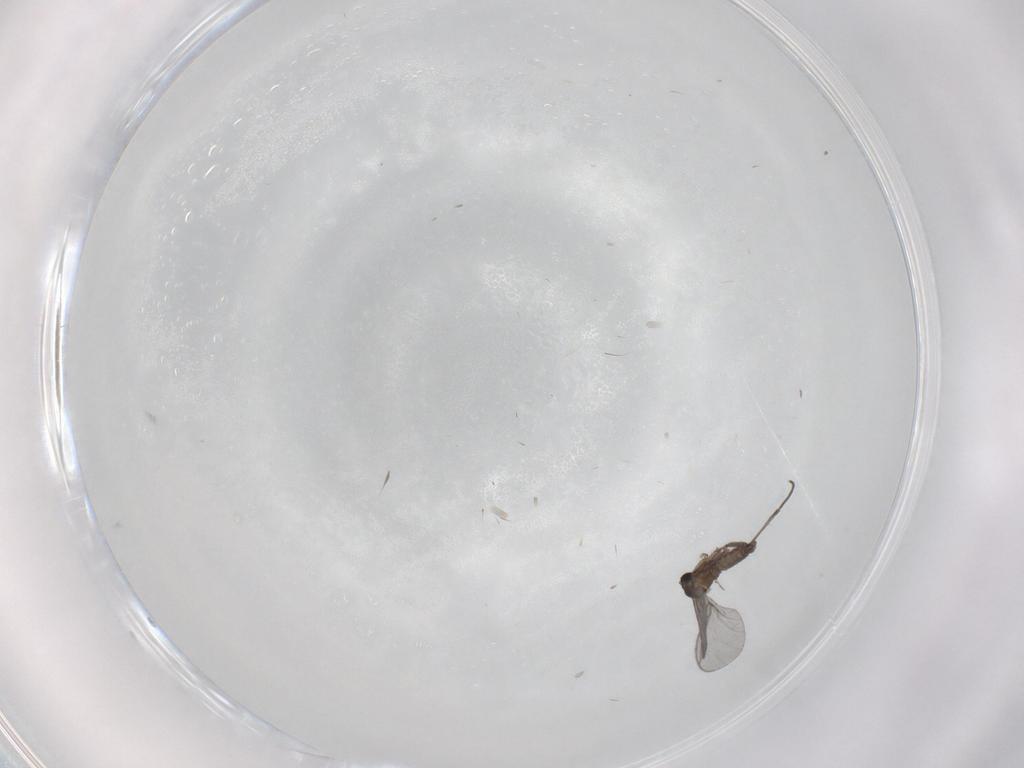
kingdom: Animalia
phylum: Arthropoda
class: Insecta
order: Diptera
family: Sciaridae
